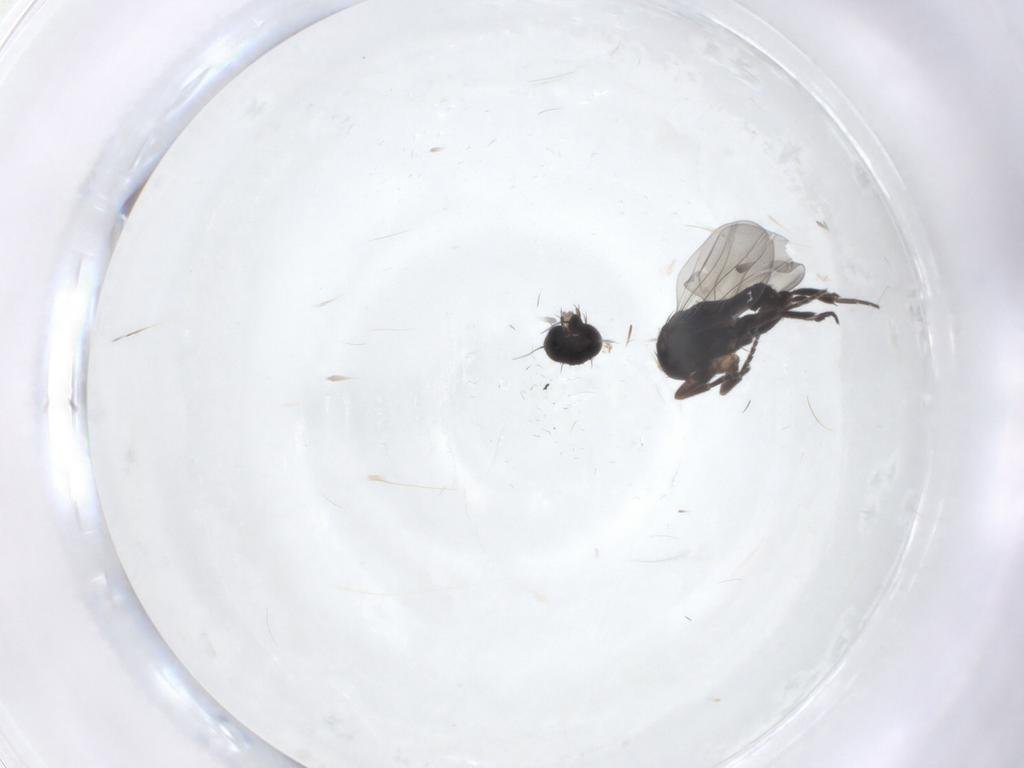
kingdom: Animalia
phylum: Arthropoda
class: Insecta
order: Diptera
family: Phoridae
